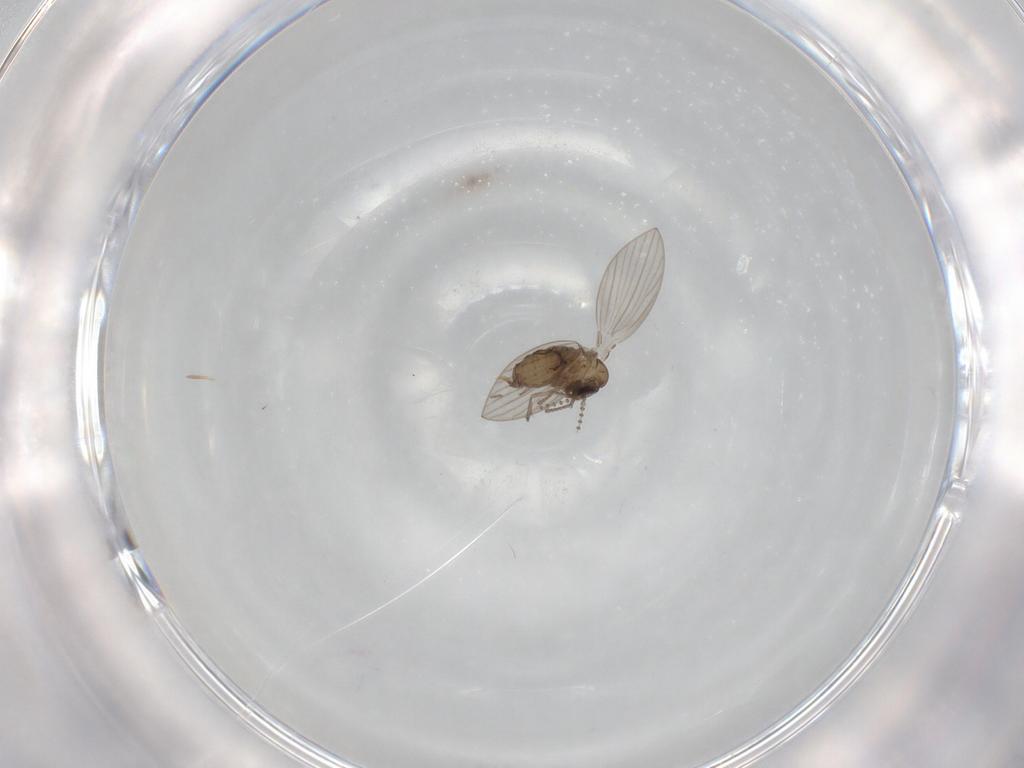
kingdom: Animalia
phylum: Arthropoda
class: Insecta
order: Diptera
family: Psychodidae
